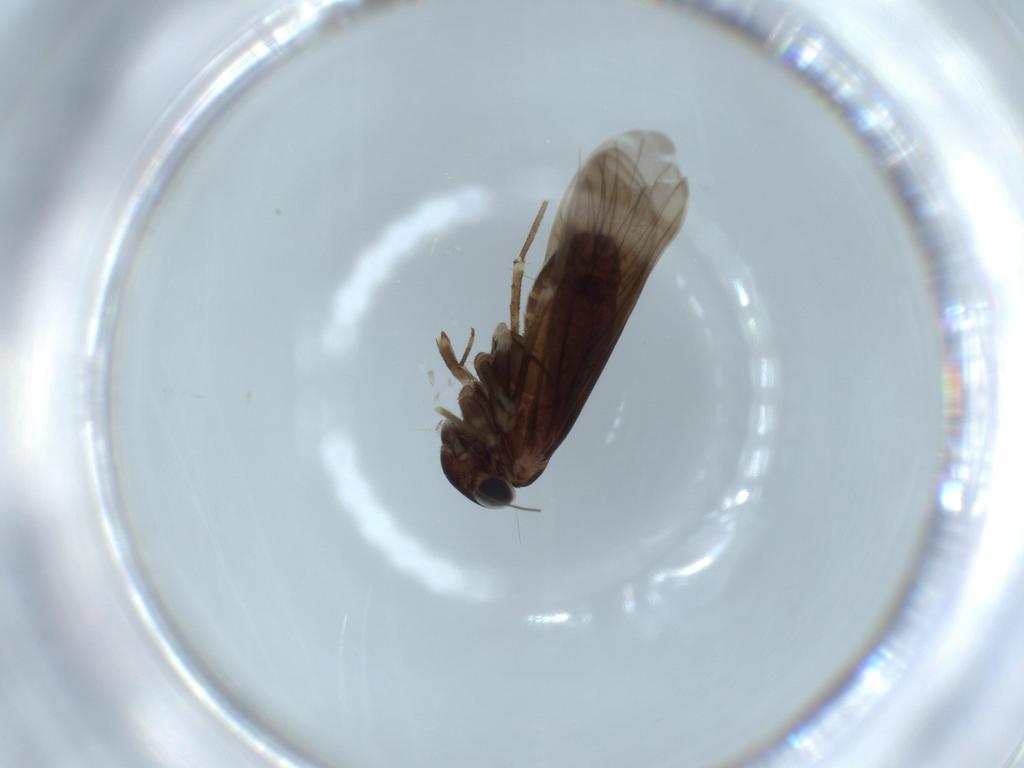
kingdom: Animalia
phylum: Arthropoda
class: Insecta
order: Psocodea
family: Amphientomidae
